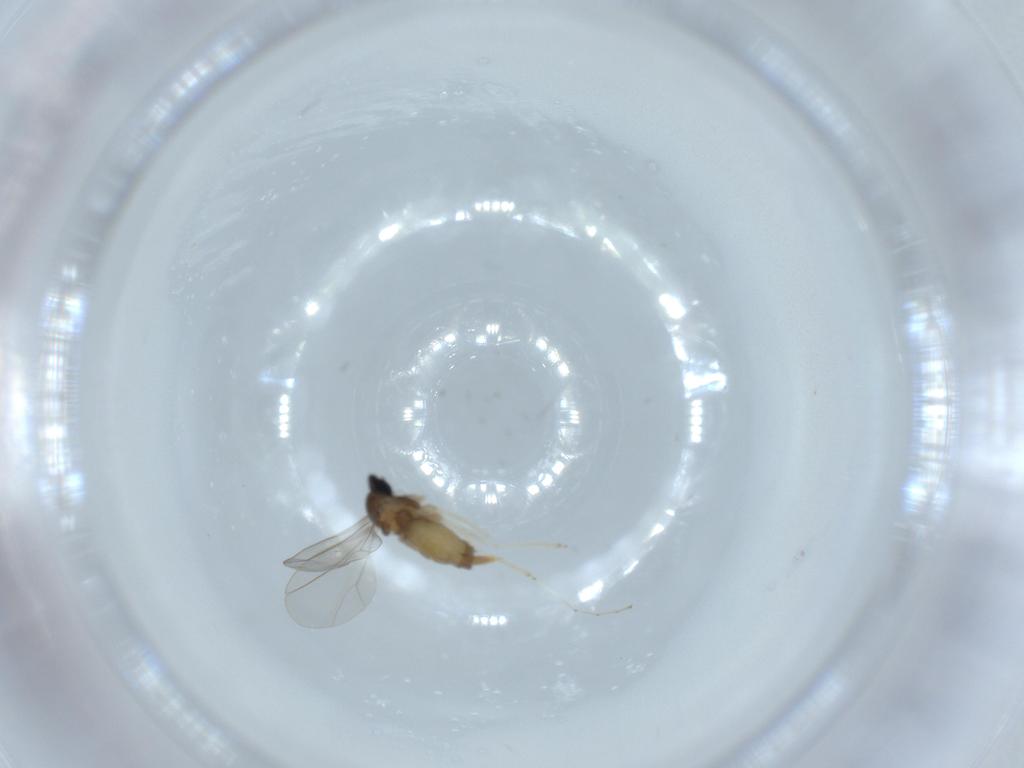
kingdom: Animalia
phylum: Arthropoda
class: Insecta
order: Diptera
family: Sciaridae
